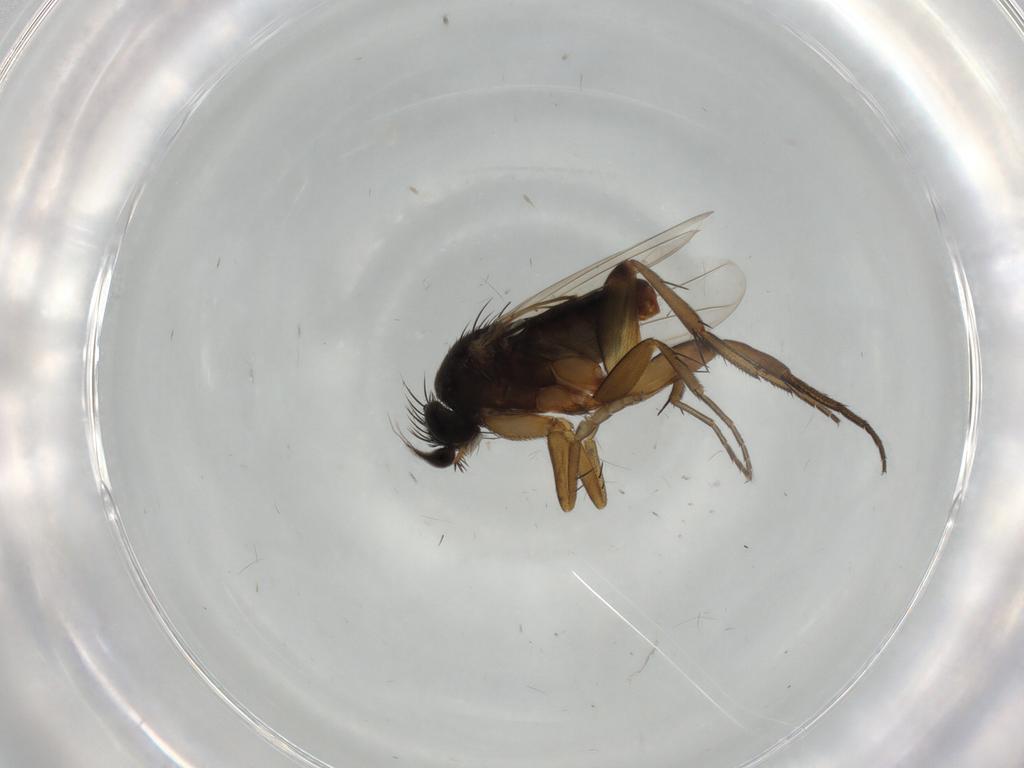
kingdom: Animalia
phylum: Arthropoda
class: Insecta
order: Diptera
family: Phoridae
